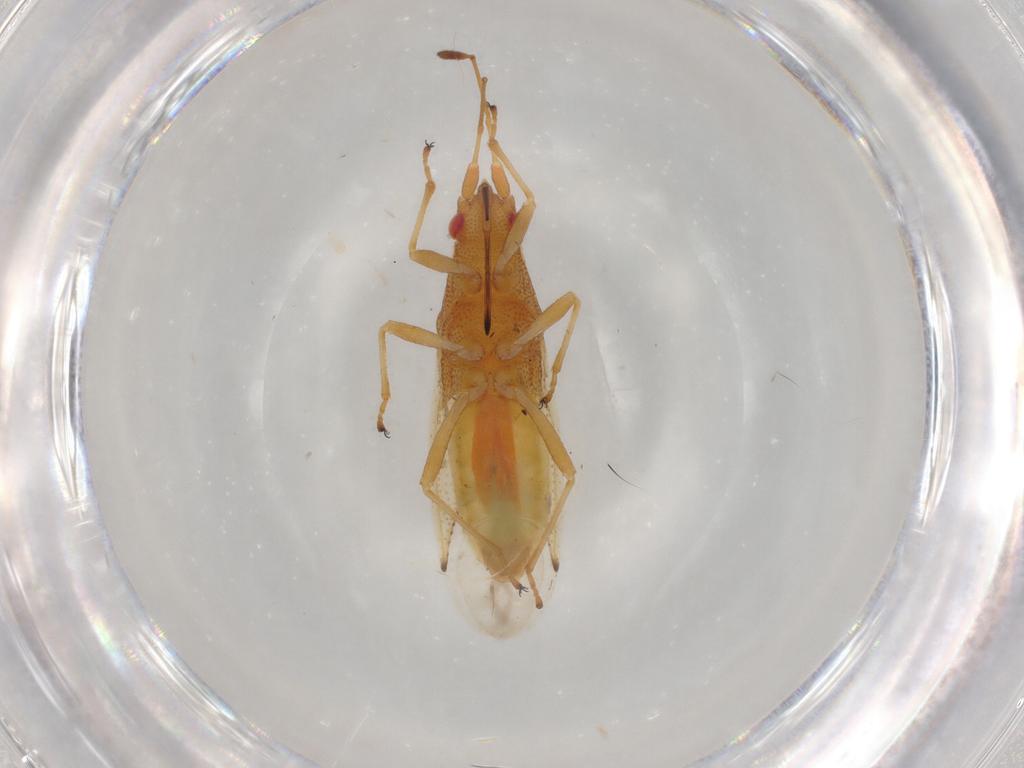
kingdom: Animalia
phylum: Arthropoda
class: Insecta
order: Hemiptera
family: Cymidae
